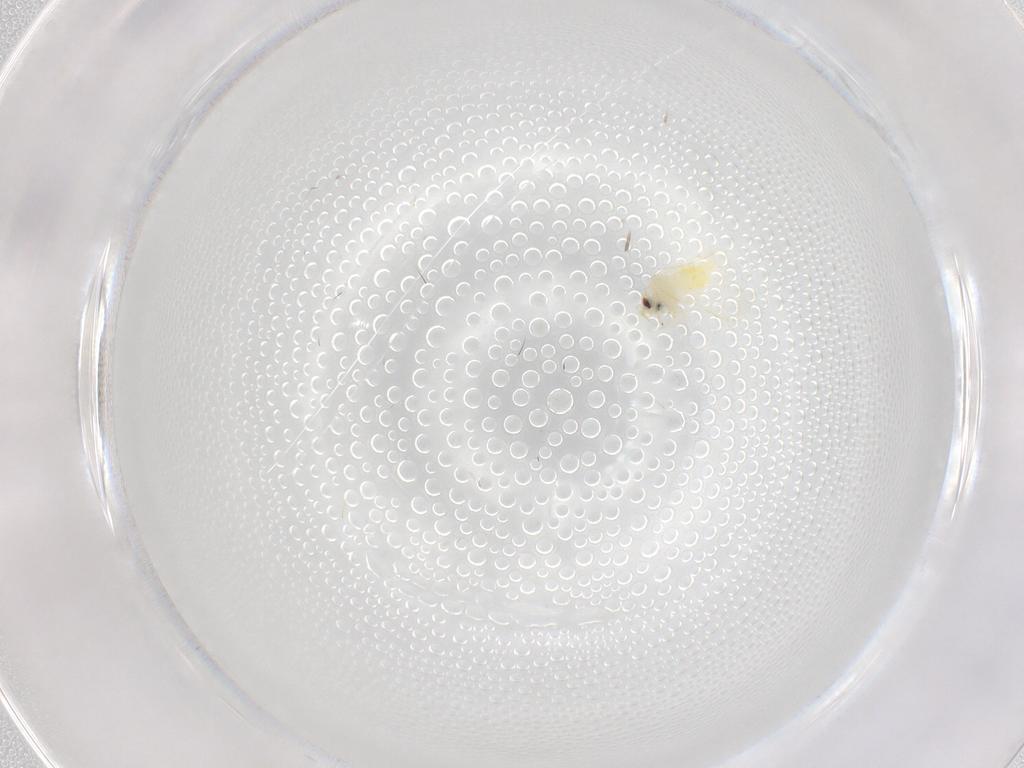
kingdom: Animalia
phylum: Arthropoda
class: Insecta
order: Hemiptera
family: Aleyrodidae
